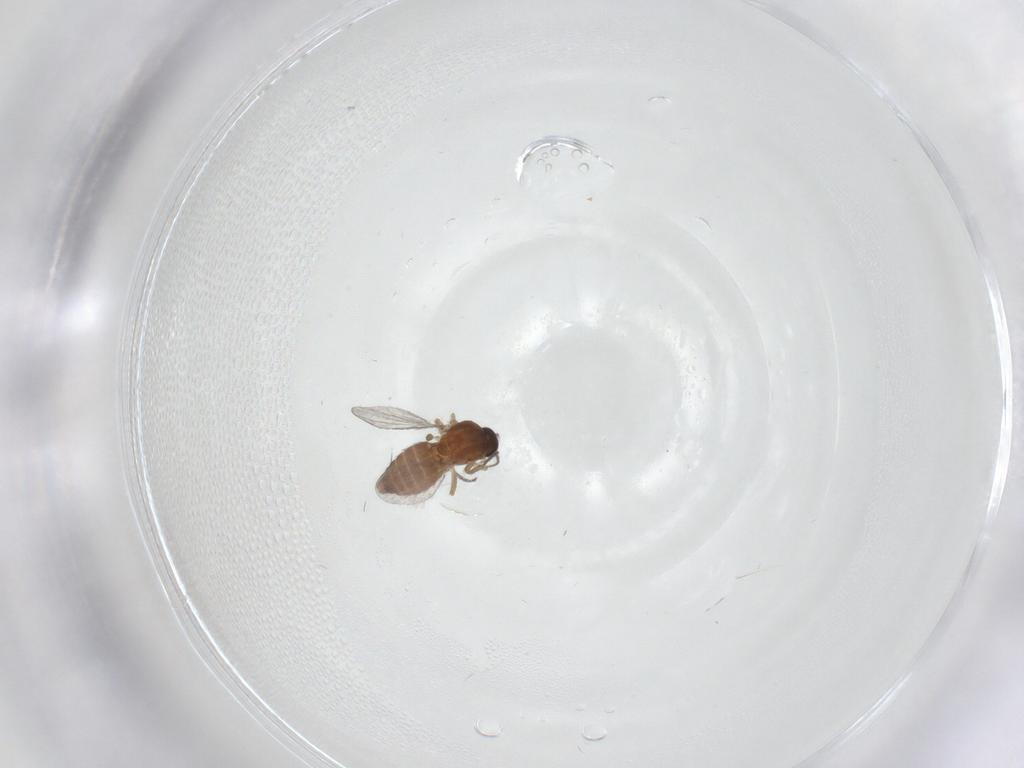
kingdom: Animalia
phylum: Arthropoda
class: Insecta
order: Diptera
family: Ceratopogonidae
